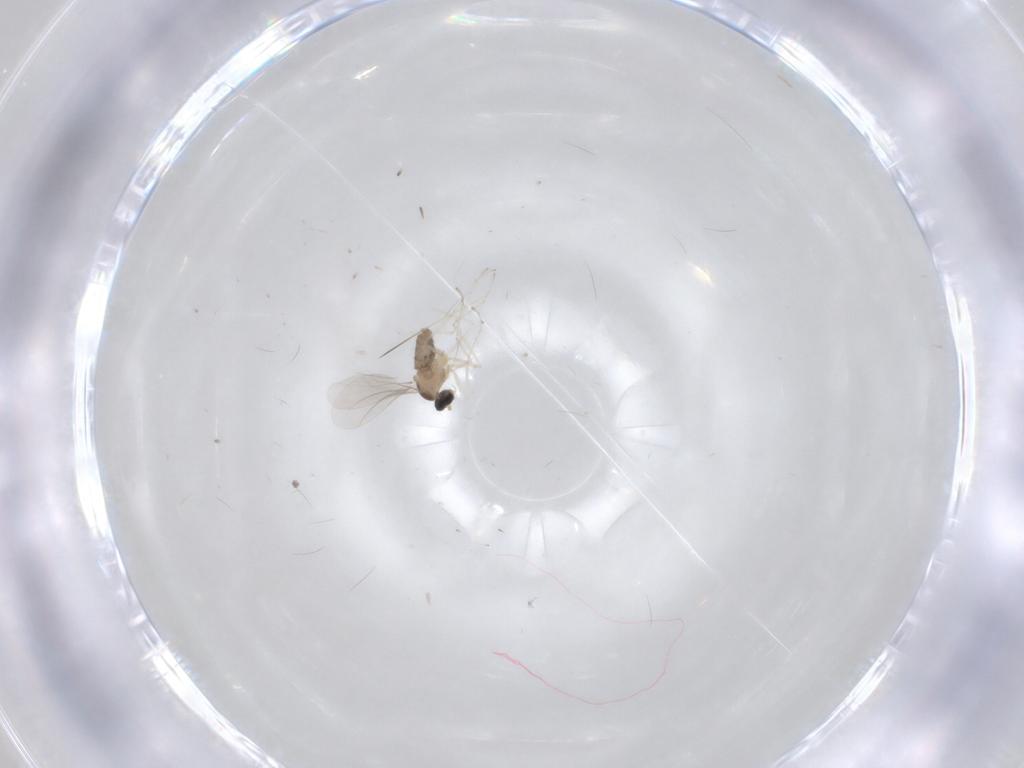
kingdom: Animalia
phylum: Arthropoda
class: Insecta
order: Diptera
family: Cecidomyiidae
